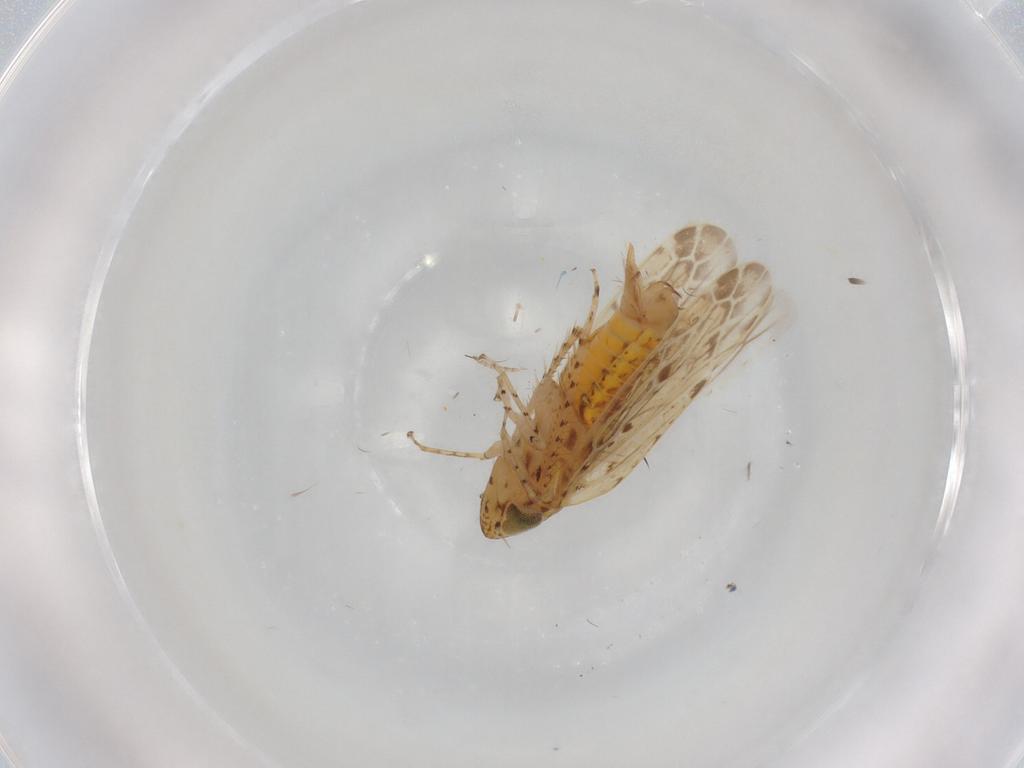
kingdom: Animalia
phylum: Arthropoda
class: Insecta
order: Hemiptera
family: Cicadellidae
